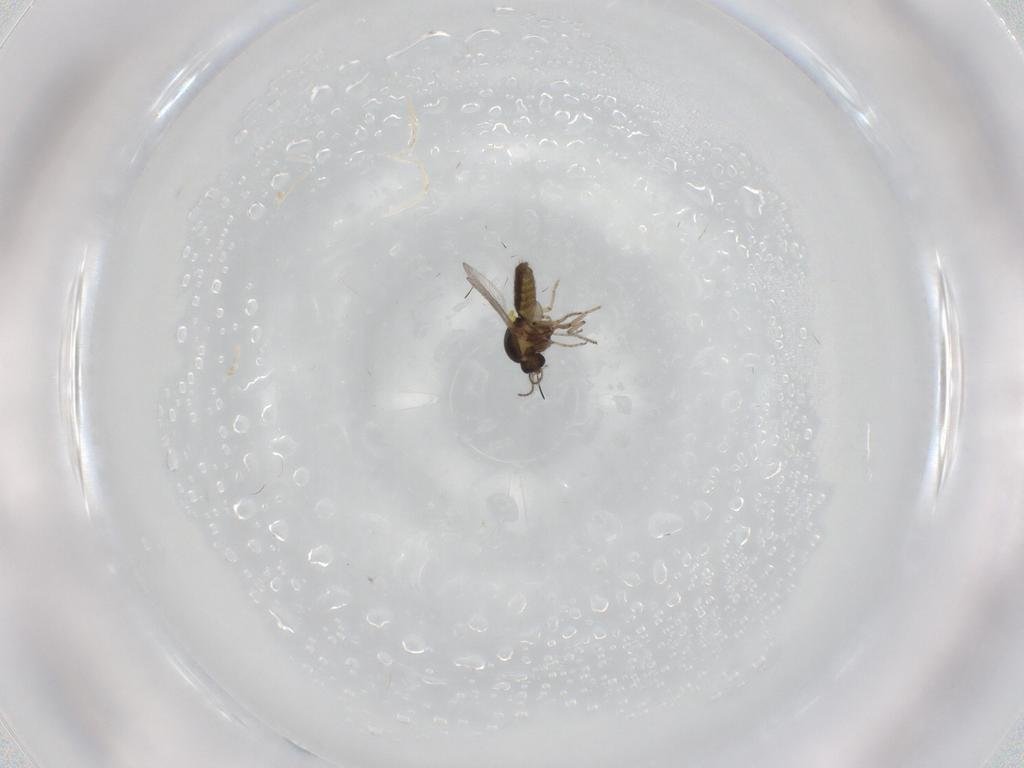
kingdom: Animalia
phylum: Arthropoda
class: Insecta
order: Diptera
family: Ceratopogonidae
